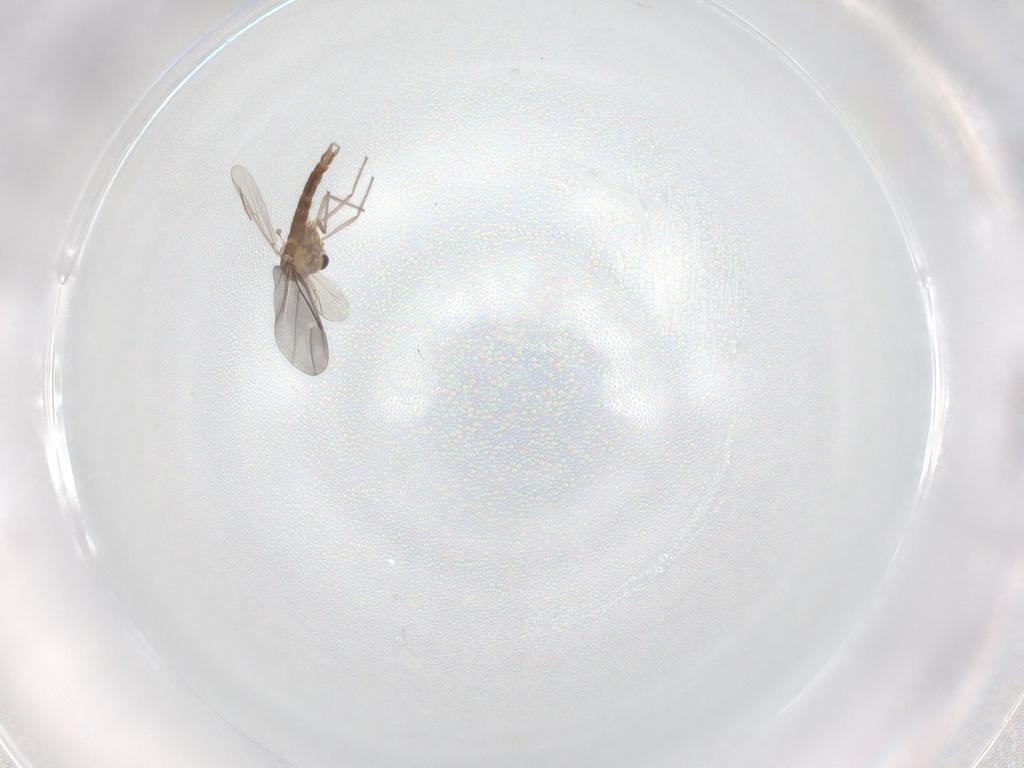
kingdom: Animalia
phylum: Arthropoda
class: Insecta
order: Diptera
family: Chironomidae
